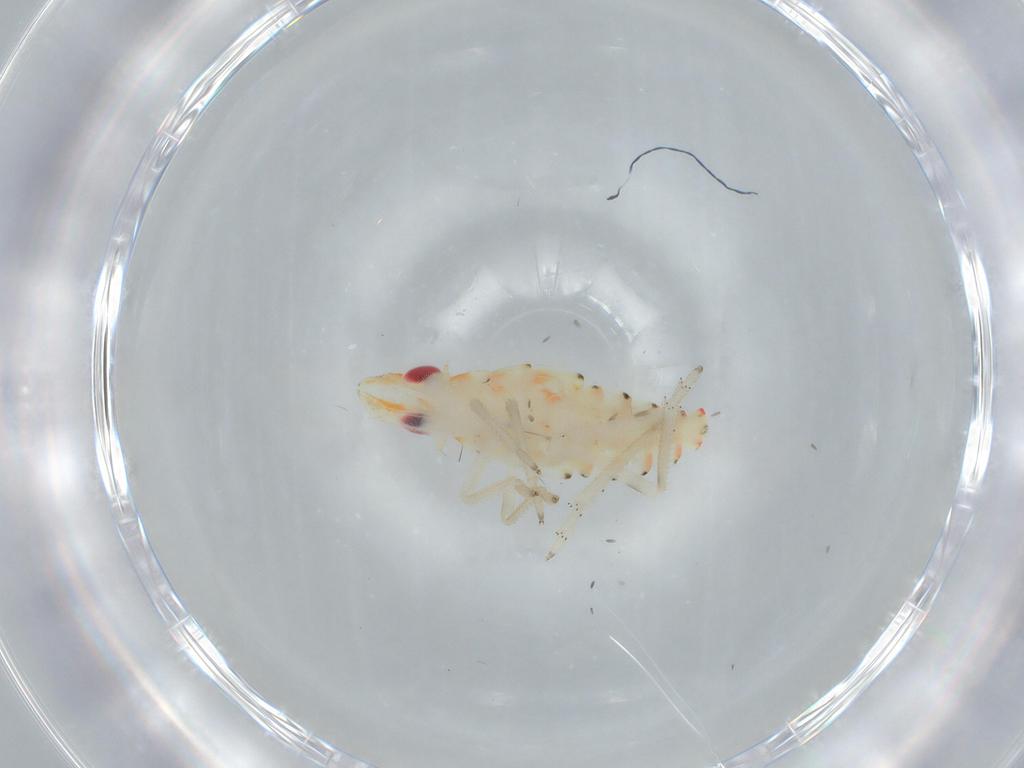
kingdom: Animalia
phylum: Arthropoda
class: Insecta
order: Hemiptera
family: Tropiduchidae
